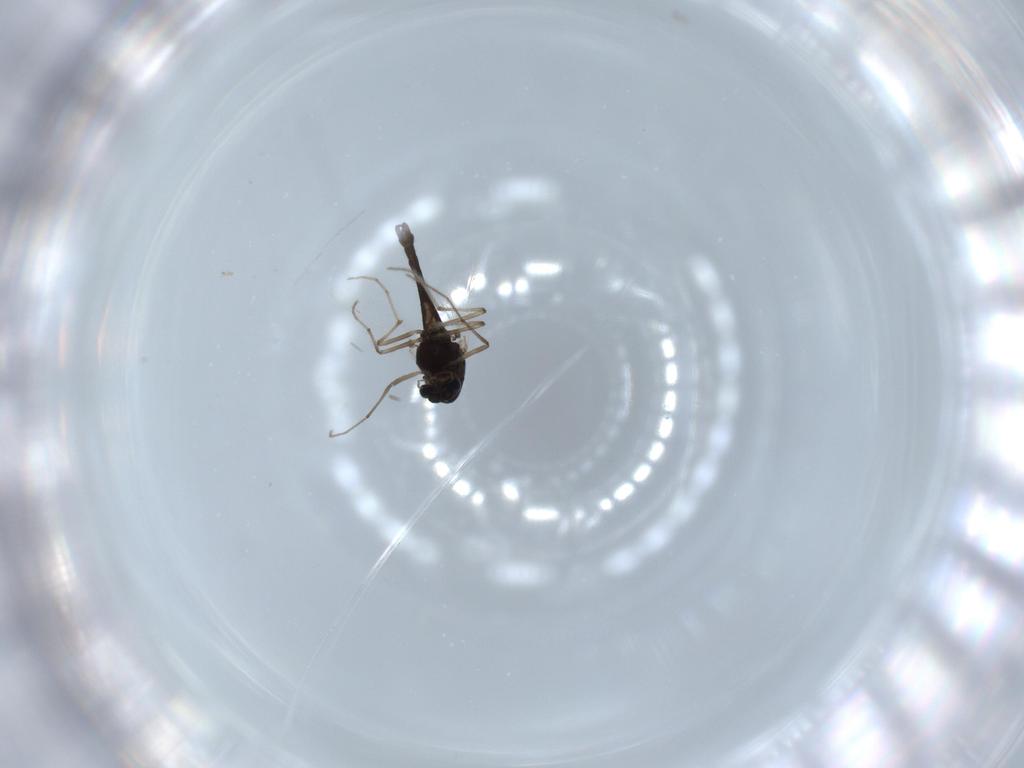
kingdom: Animalia
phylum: Arthropoda
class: Insecta
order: Diptera
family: Chironomidae
